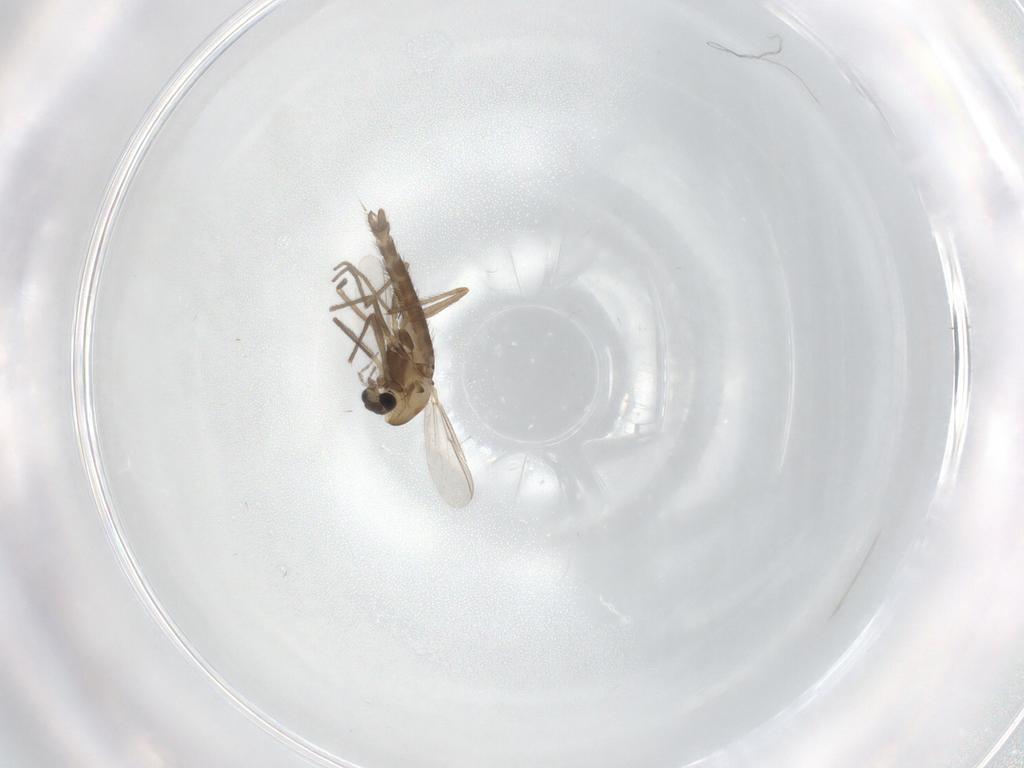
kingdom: Animalia
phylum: Arthropoda
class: Insecta
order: Diptera
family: Chironomidae
